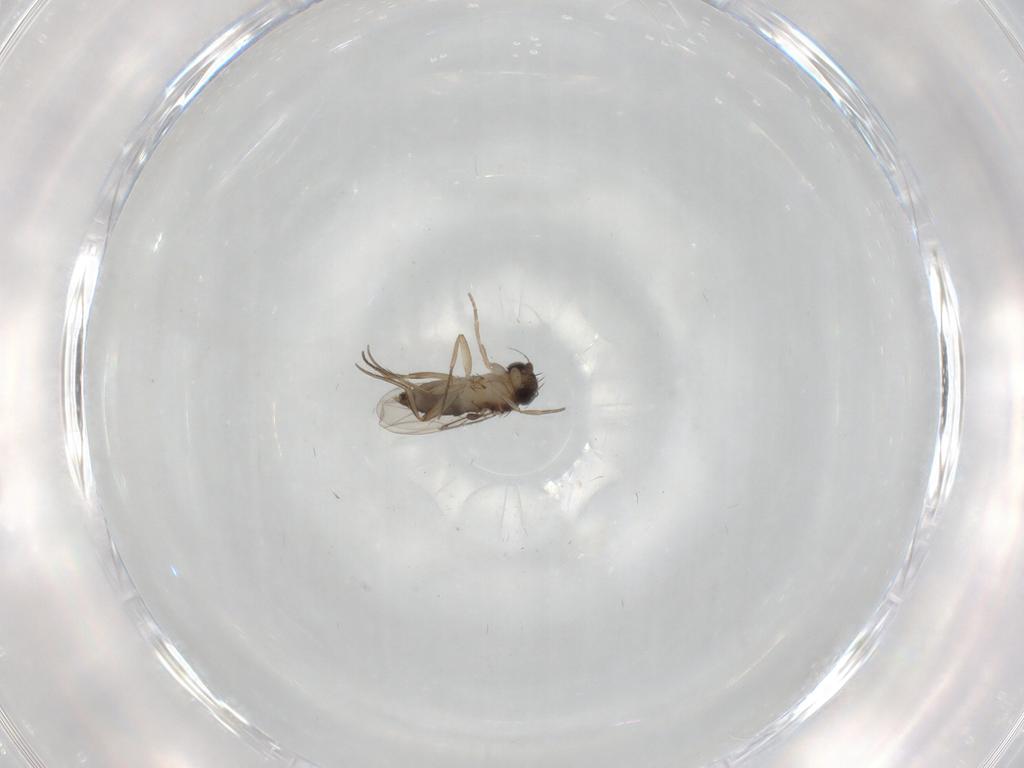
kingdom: Animalia
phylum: Arthropoda
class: Insecta
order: Diptera
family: Phoridae
